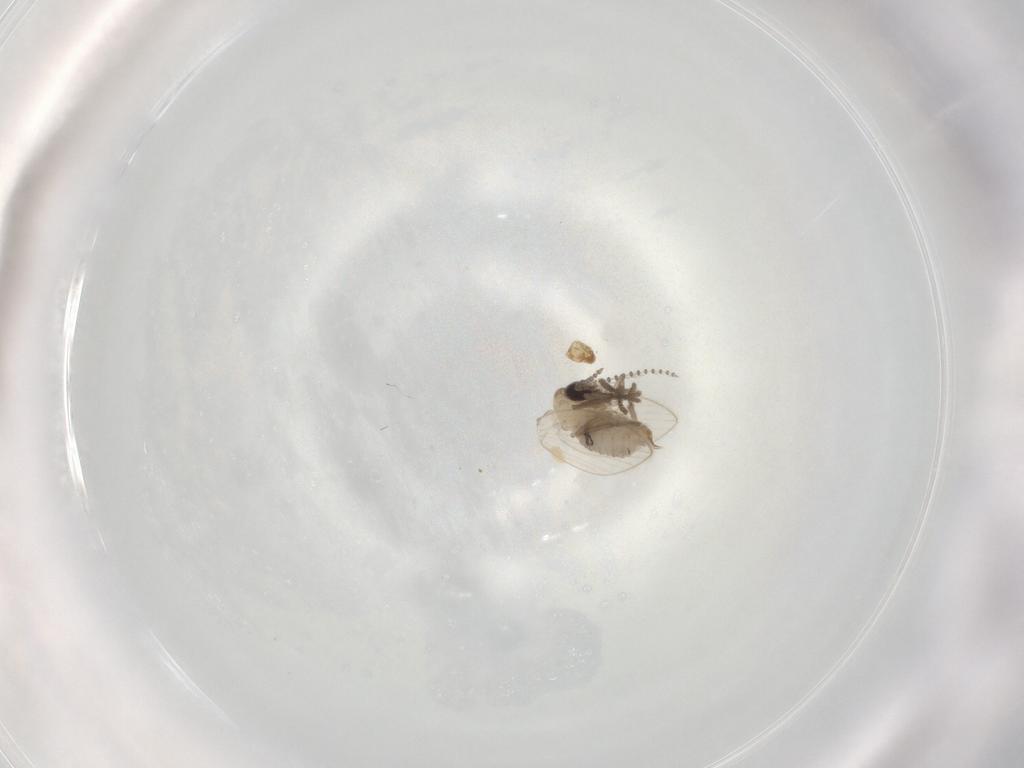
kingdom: Animalia
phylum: Arthropoda
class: Insecta
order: Diptera
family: Psychodidae
